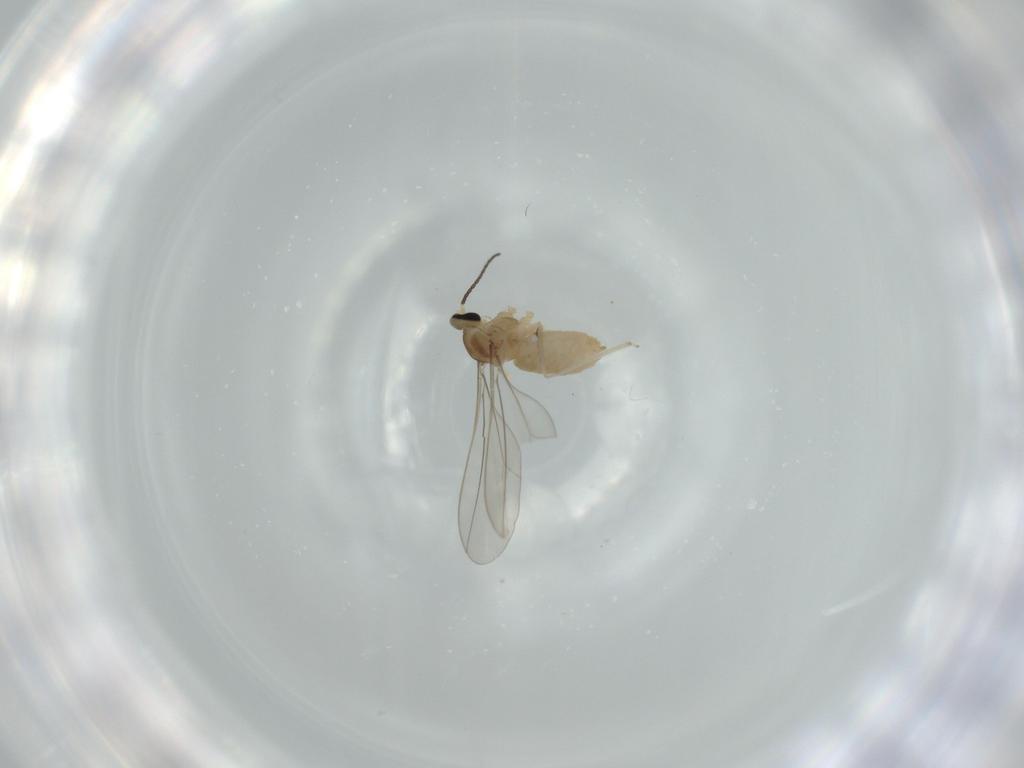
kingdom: Animalia
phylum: Arthropoda
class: Insecta
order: Diptera
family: Cecidomyiidae
